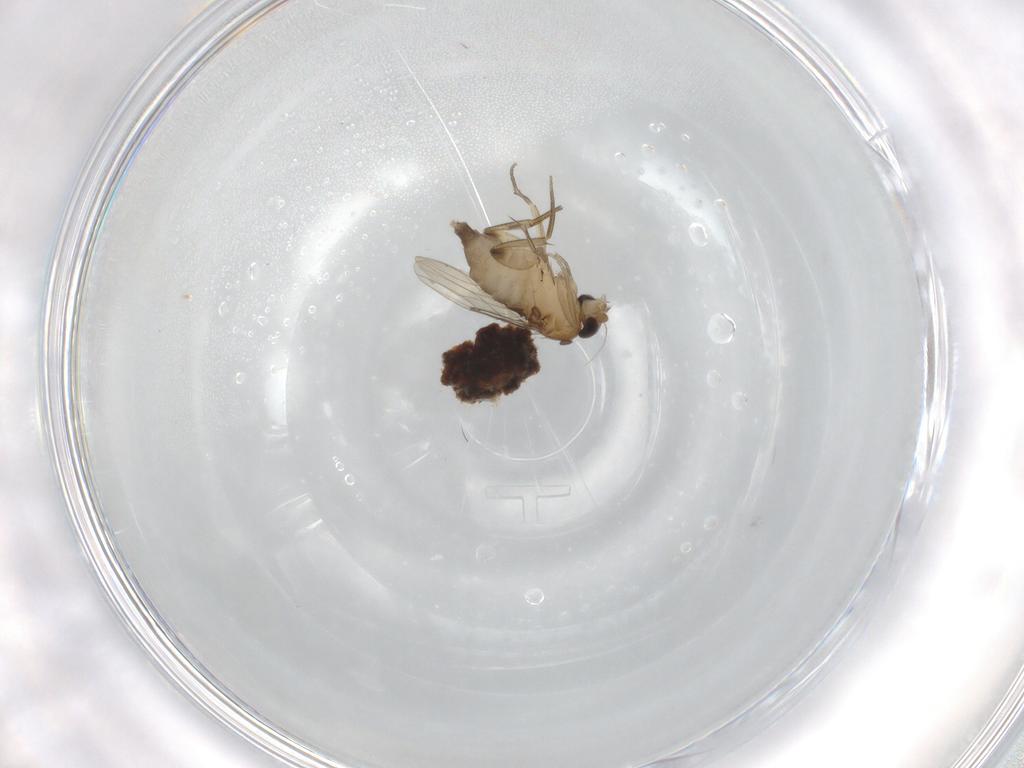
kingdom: Animalia
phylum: Arthropoda
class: Insecta
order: Diptera
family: Phoridae
